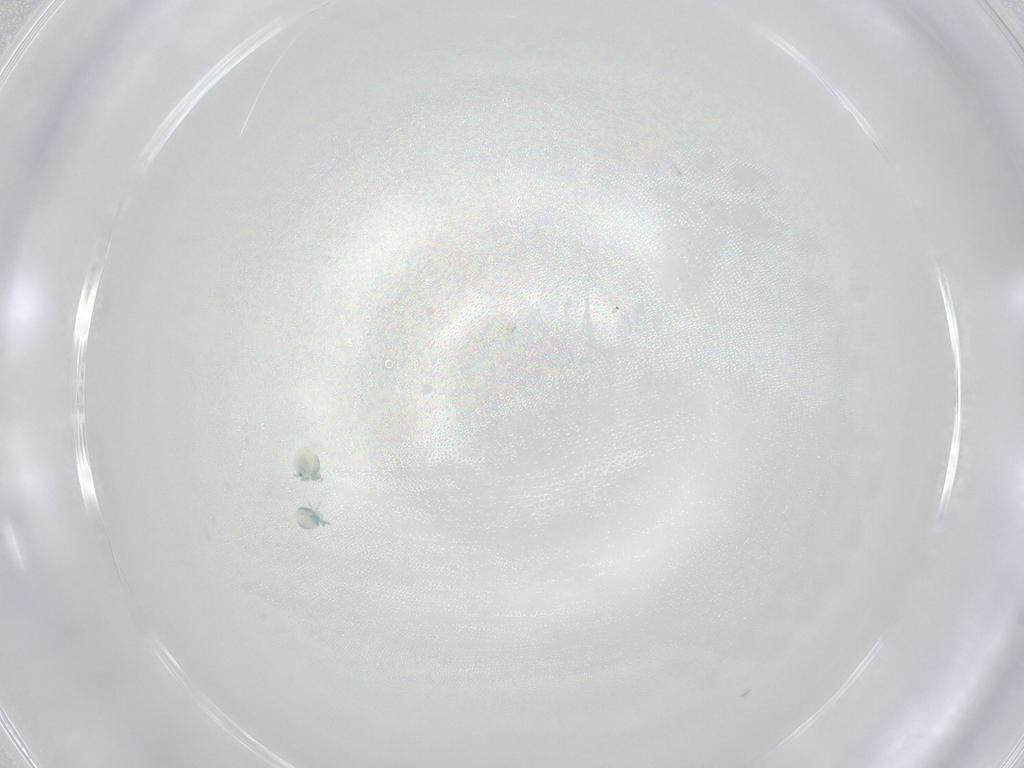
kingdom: Animalia
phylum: Arthropoda
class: Arachnida
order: Trombidiformes
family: Arrenuridae
